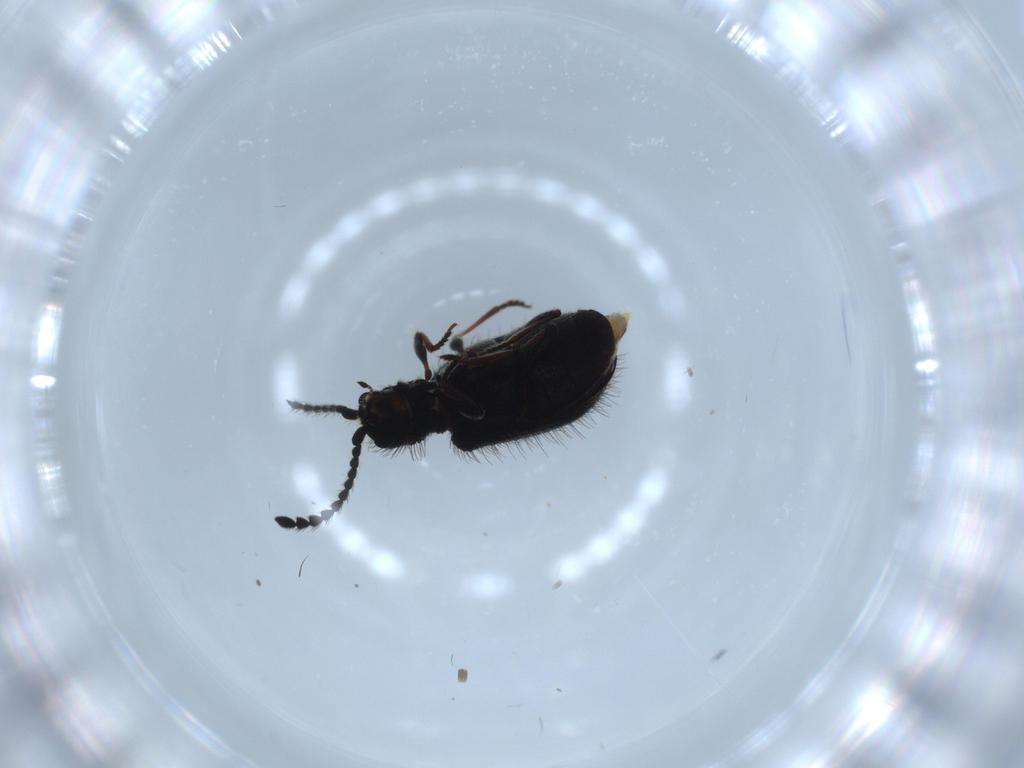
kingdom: Animalia
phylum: Arthropoda
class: Insecta
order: Coleoptera
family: Ptinidae
